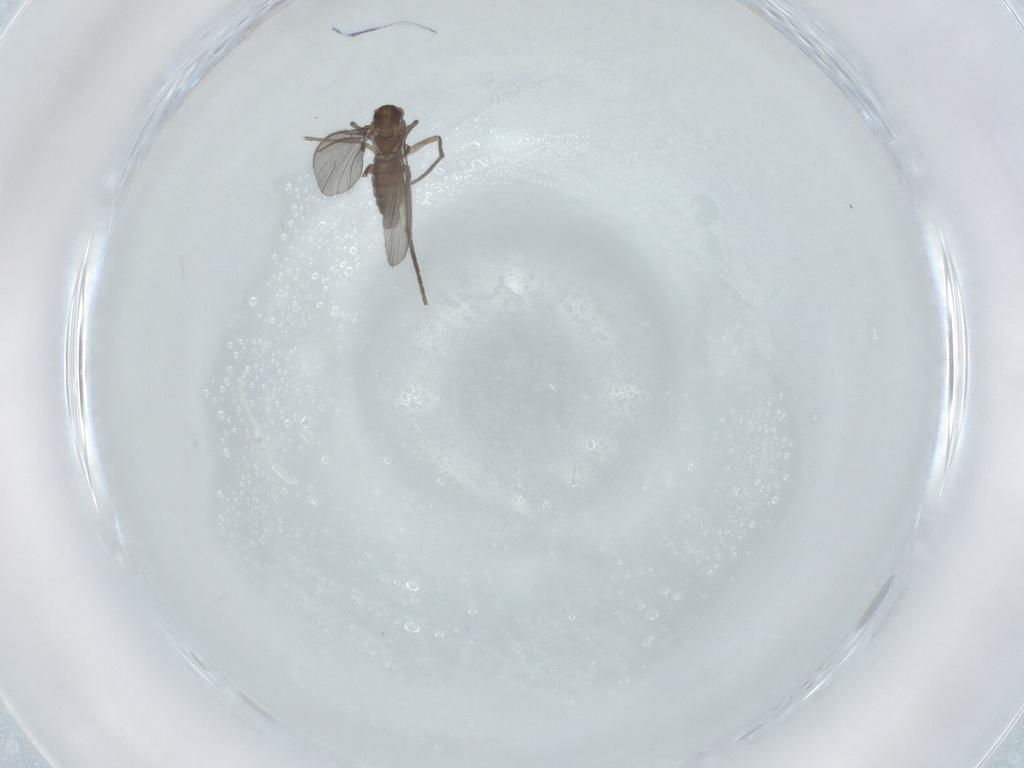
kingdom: Animalia
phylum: Arthropoda
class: Insecta
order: Diptera
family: Sciaridae
